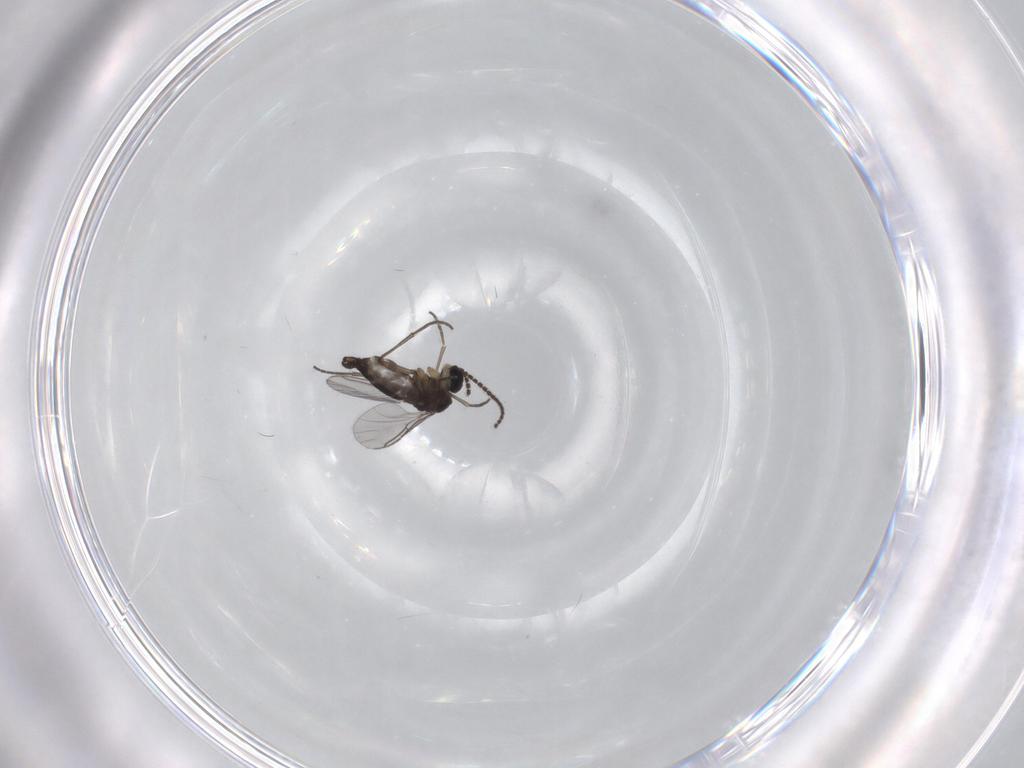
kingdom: Animalia
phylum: Arthropoda
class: Insecta
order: Diptera
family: Sciaridae
